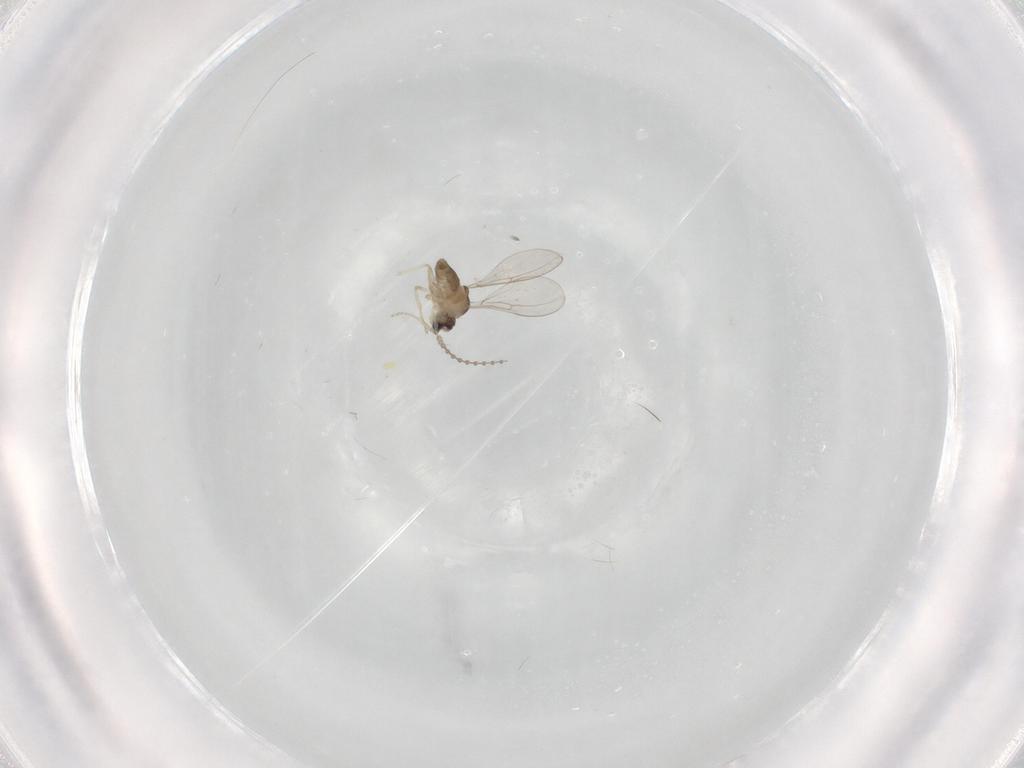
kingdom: Animalia
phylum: Arthropoda
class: Insecta
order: Diptera
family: Cecidomyiidae
